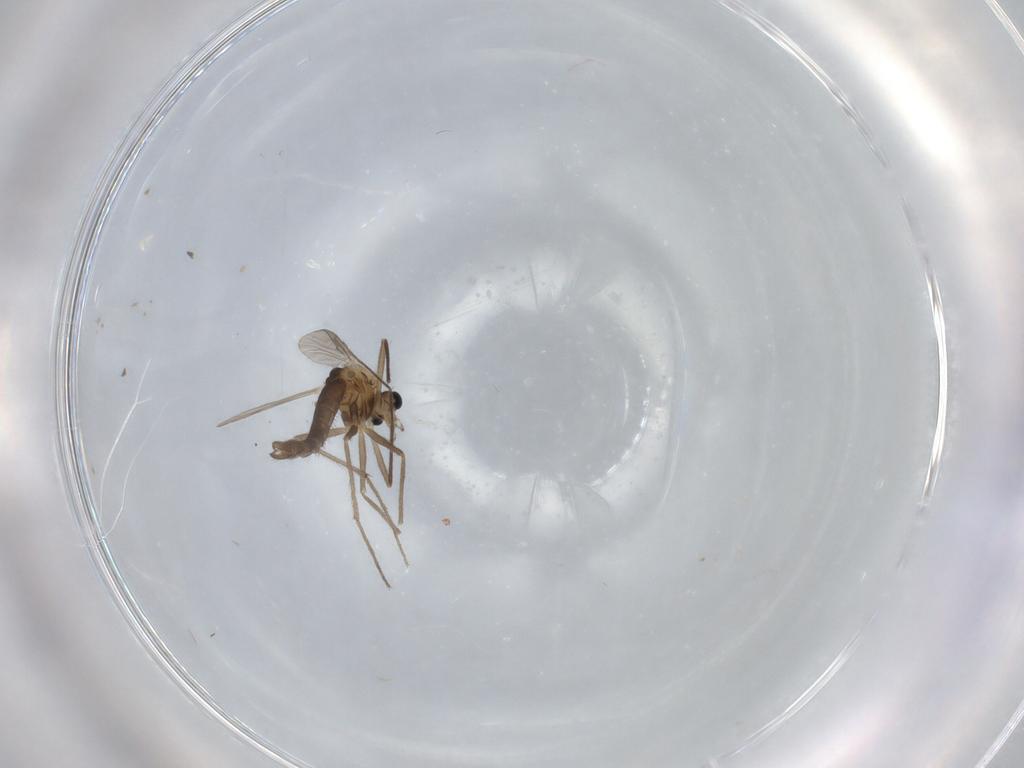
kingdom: Animalia
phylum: Arthropoda
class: Insecta
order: Diptera
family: Chironomidae
